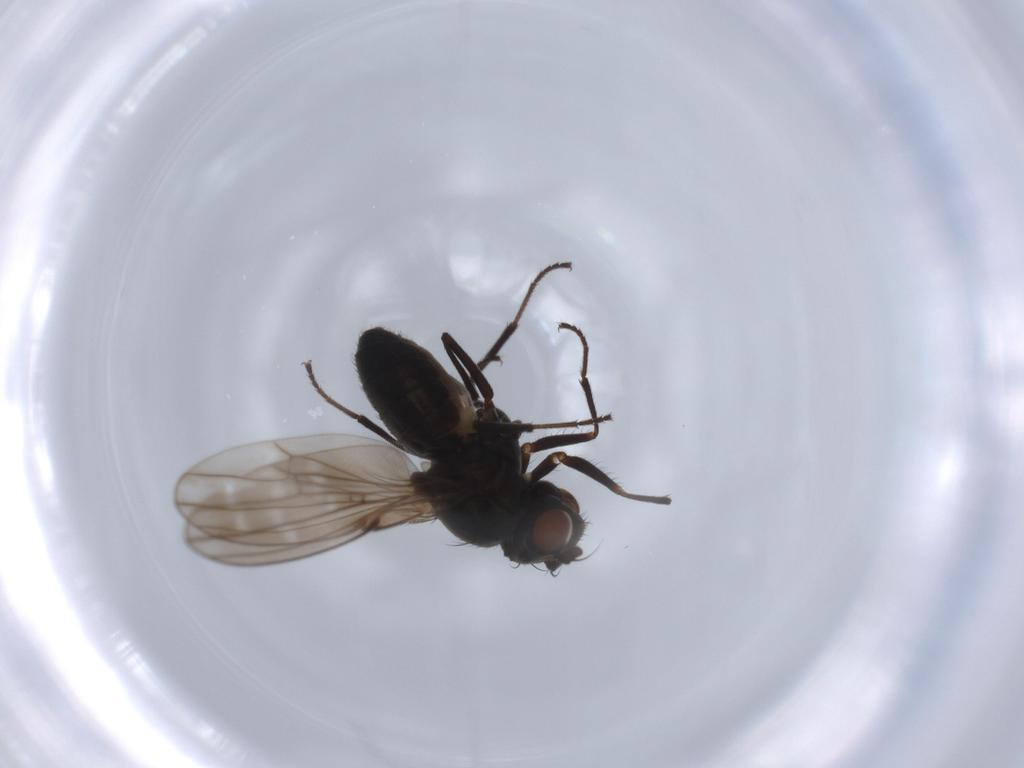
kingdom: Animalia
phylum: Arthropoda
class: Insecta
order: Diptera
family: Ephydridae
